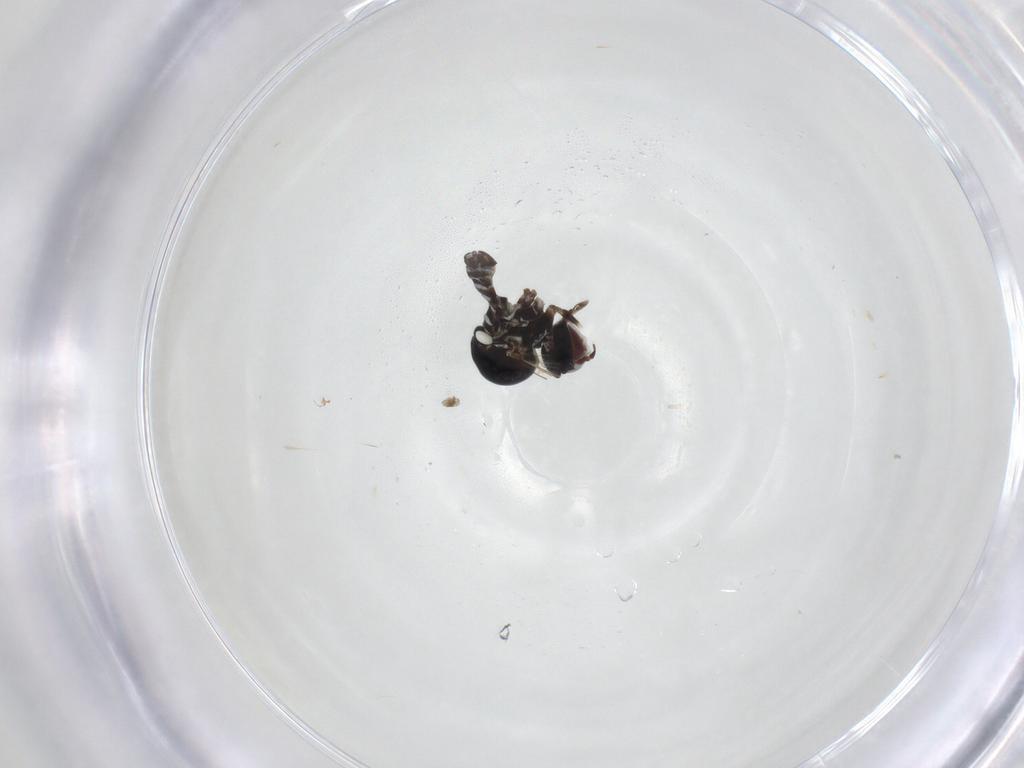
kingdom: Animalia
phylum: Arthropoda
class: Insecta
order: Diptera
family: Bombyliidae
